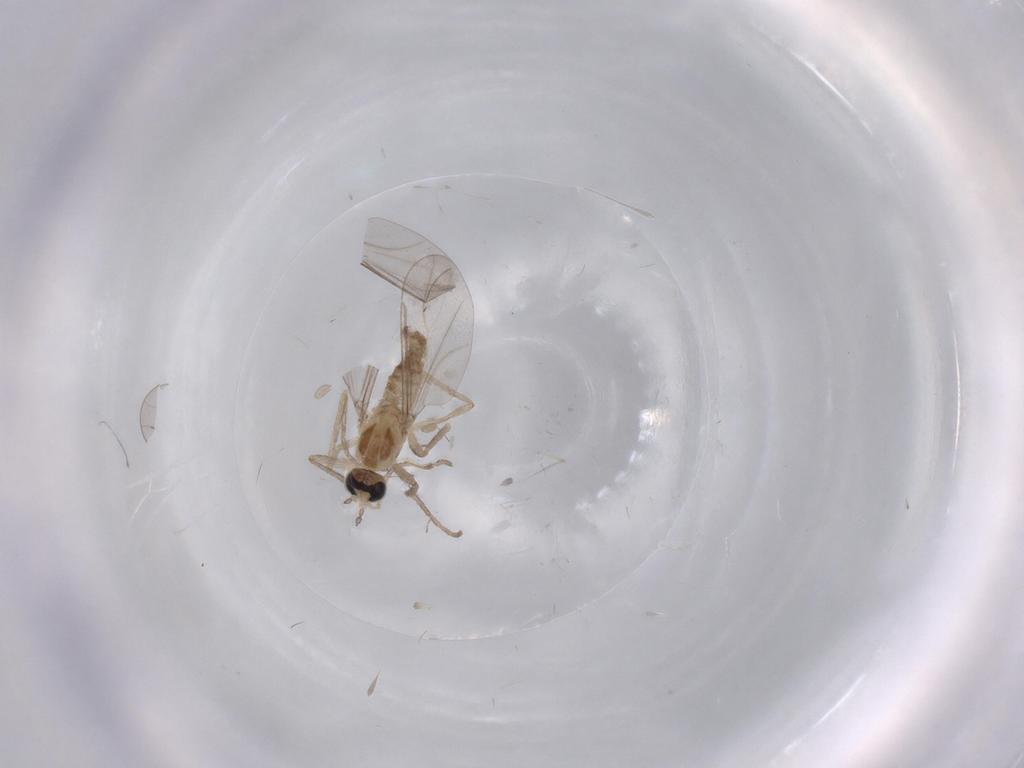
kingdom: Animalia
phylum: Arthropoda
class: Insecta
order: Diptera
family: Cecidomyiidae
